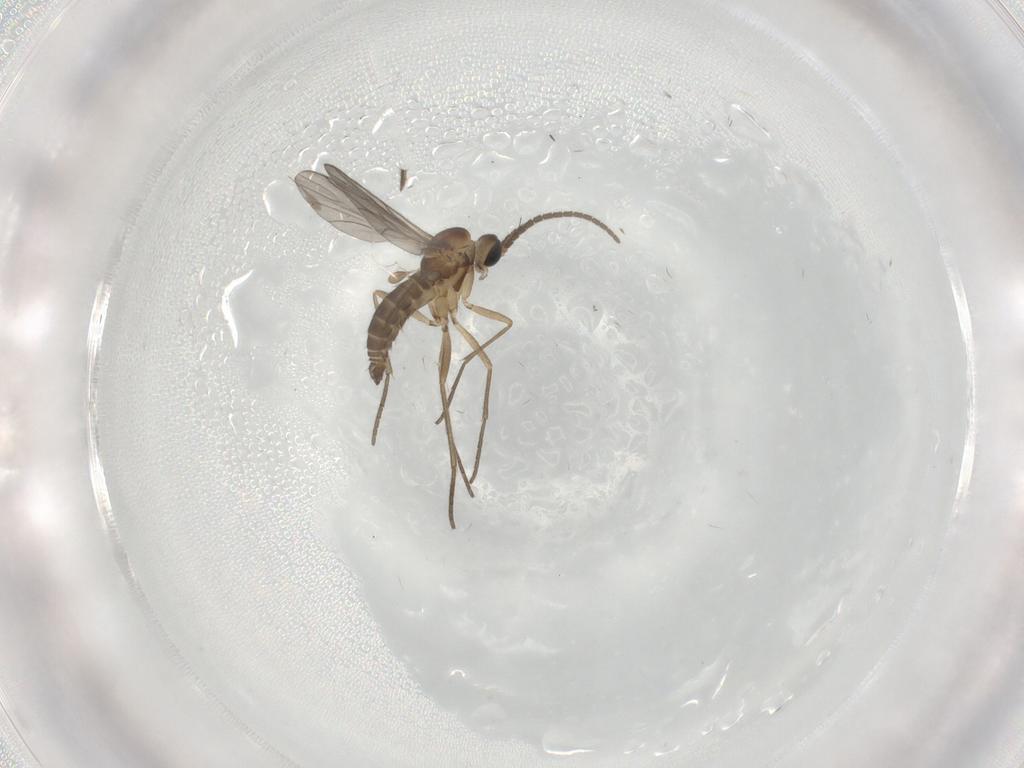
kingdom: Animalia
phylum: Arthropoda
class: Insecta
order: Diptera
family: Sciaridae
